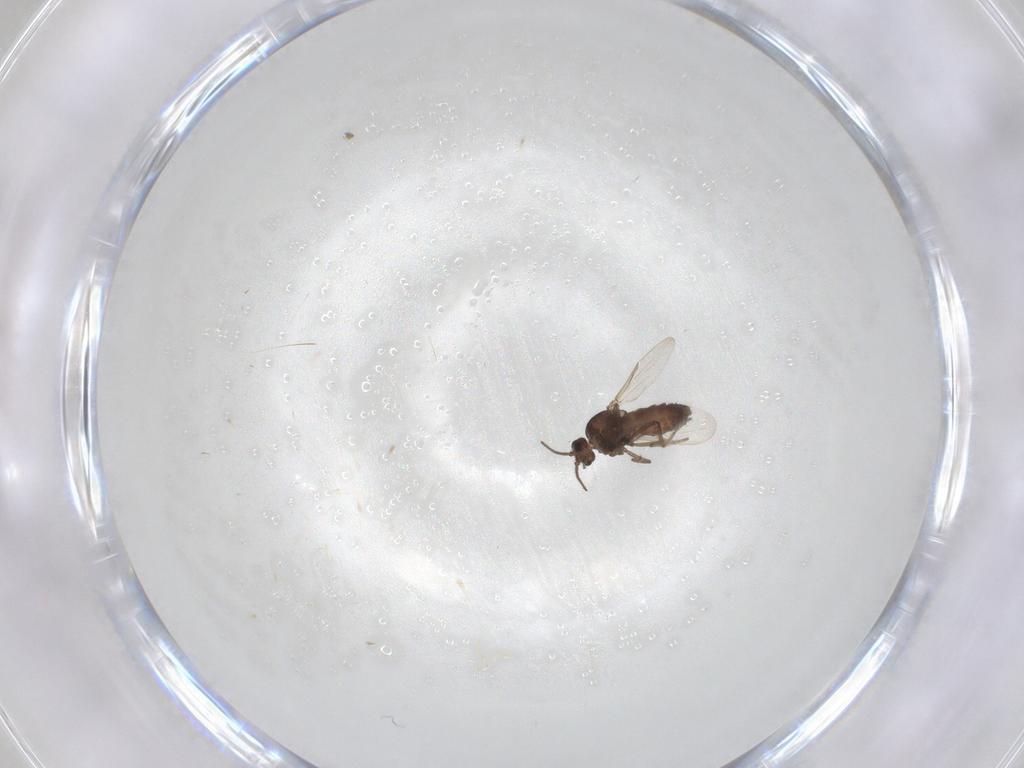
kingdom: Animalia
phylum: Arthropoda
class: Insecta
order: Diptera
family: Ceratopogonidae
